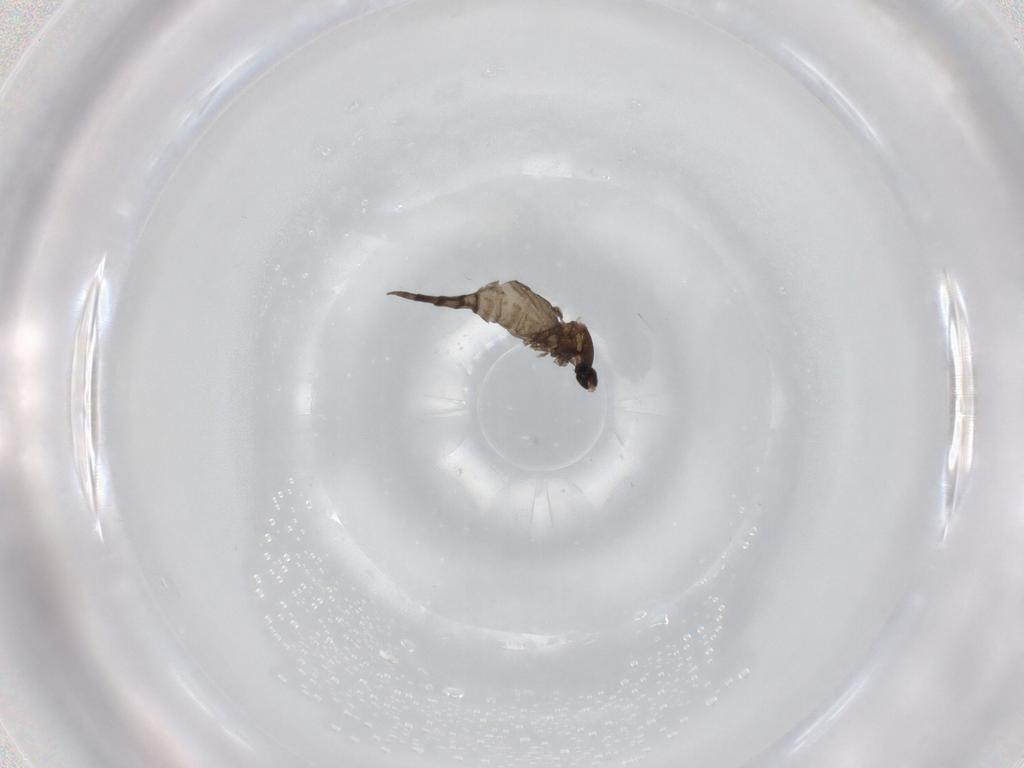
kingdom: Animalia
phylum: Arthropoda
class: Insecta
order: Diptera
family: Cecidomyiidae
